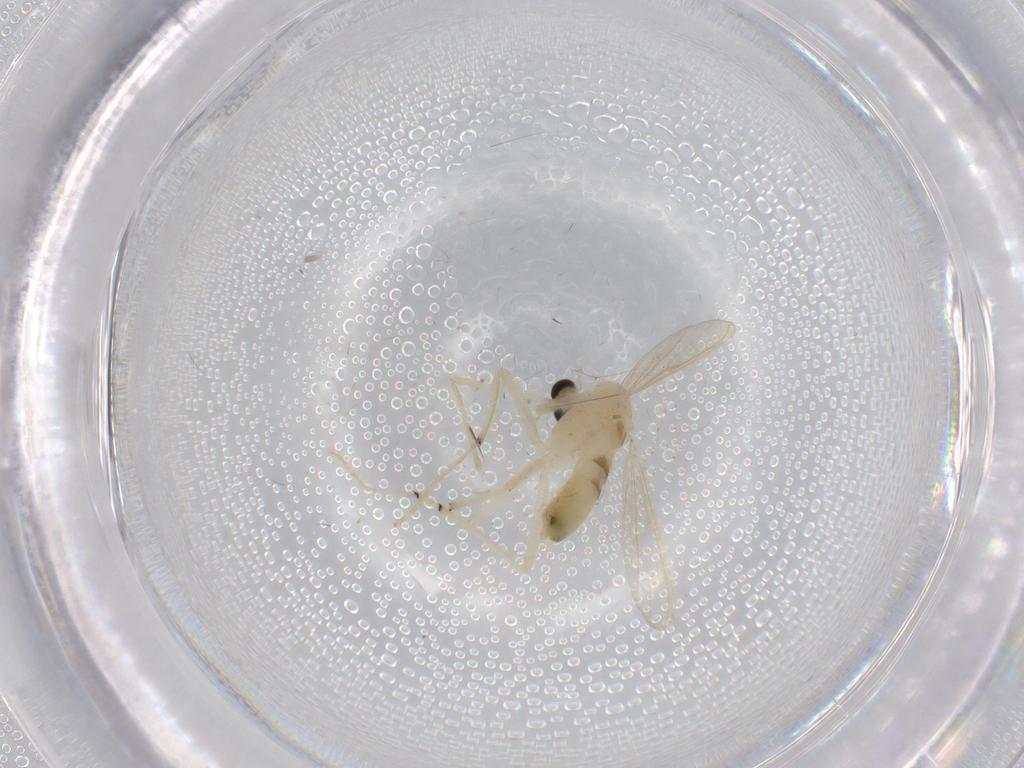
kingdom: Animalia
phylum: Arthropoda
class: Insecta
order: Diptera
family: Chironomidae
